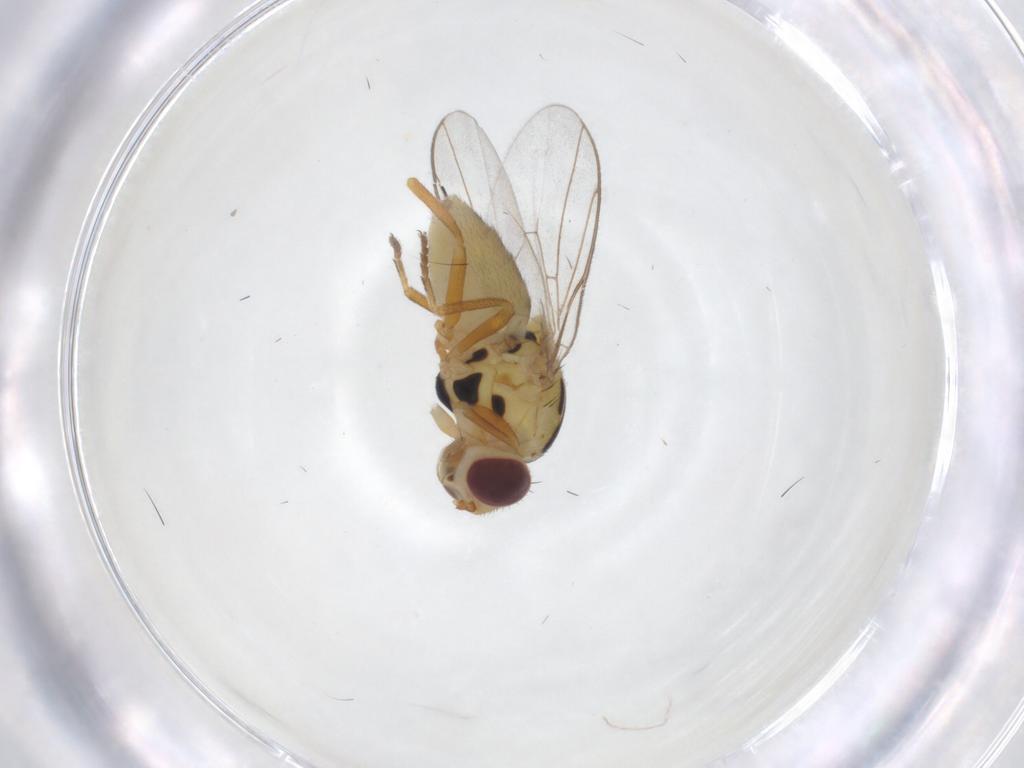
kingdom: Animalia
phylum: Arthropoda
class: Insecta
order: Diptera
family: Chloropidae
